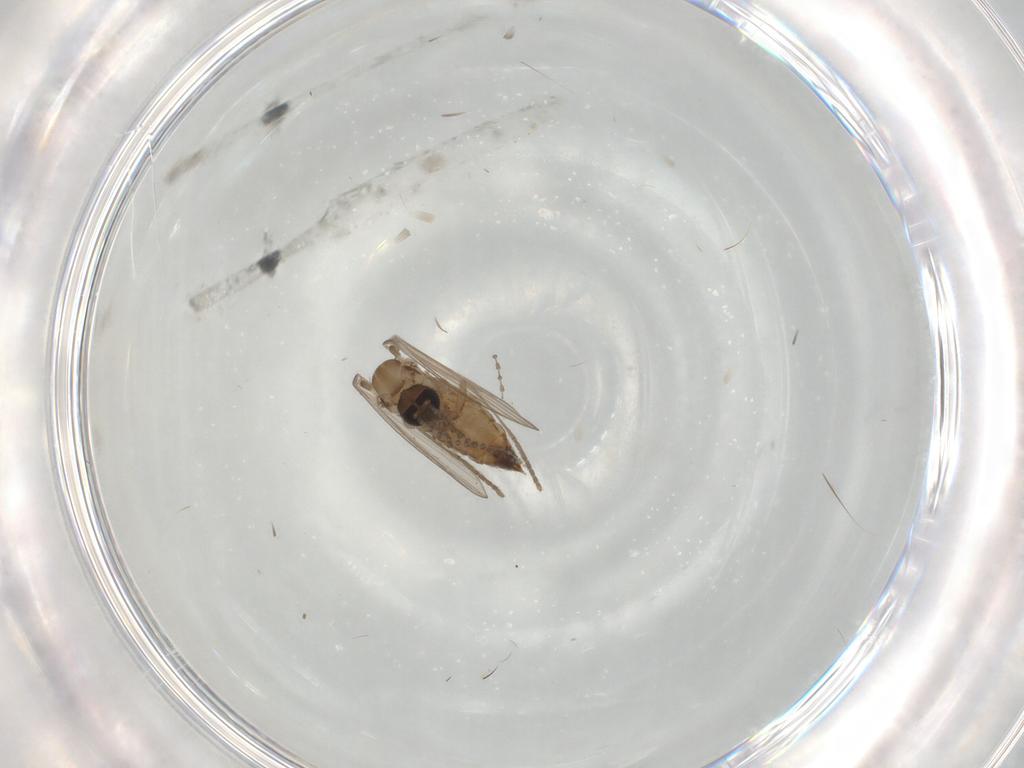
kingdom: Animalia
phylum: Arthropoda
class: Insecta
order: Diptera
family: Psychodidae
